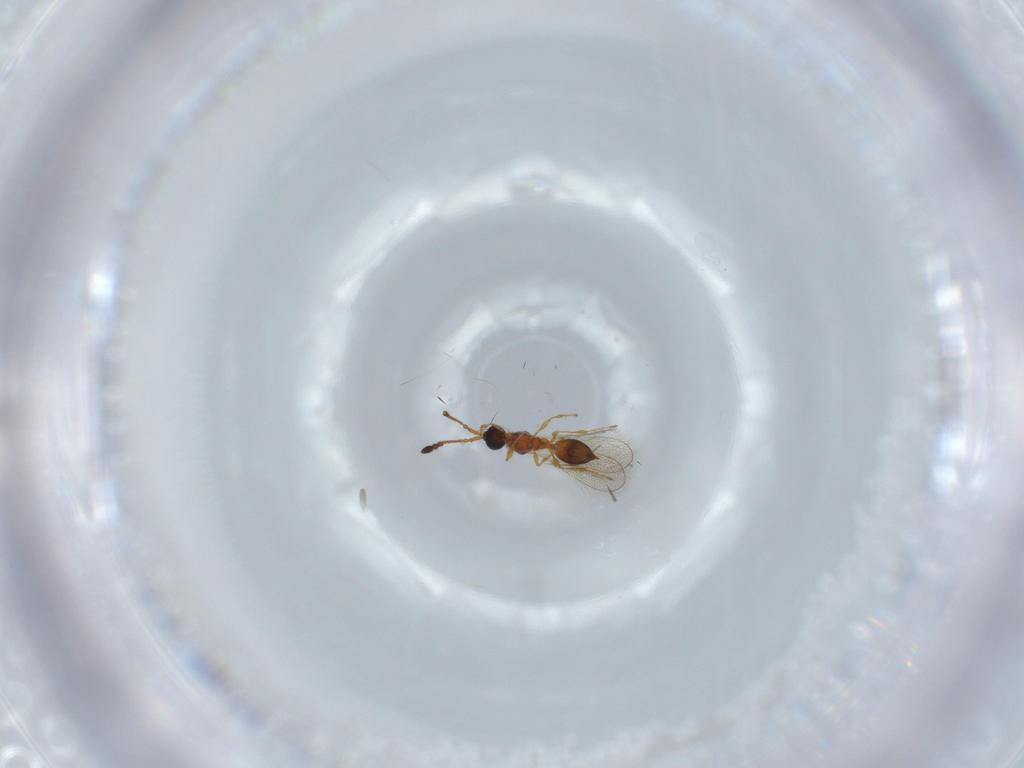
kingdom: Animalia
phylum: Arthropoda
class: Insecta
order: Hymenoptera
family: Diapriidae
